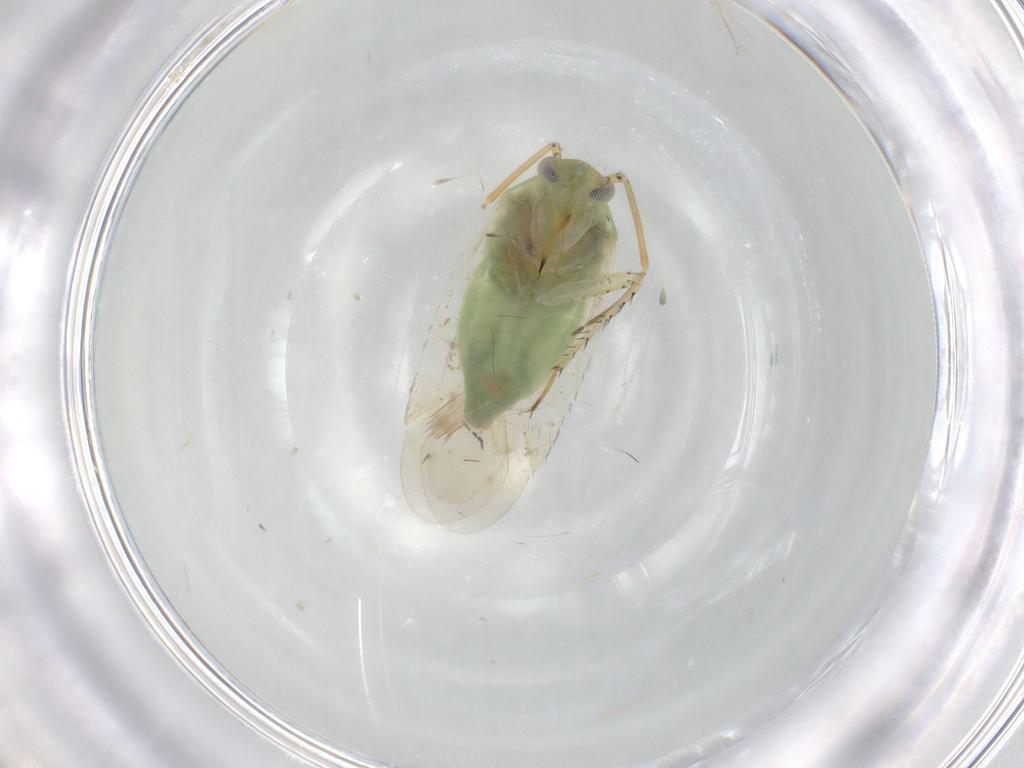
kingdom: Animalia
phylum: Arthropoda
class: Insecta
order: Hemiptera
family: Miridae
